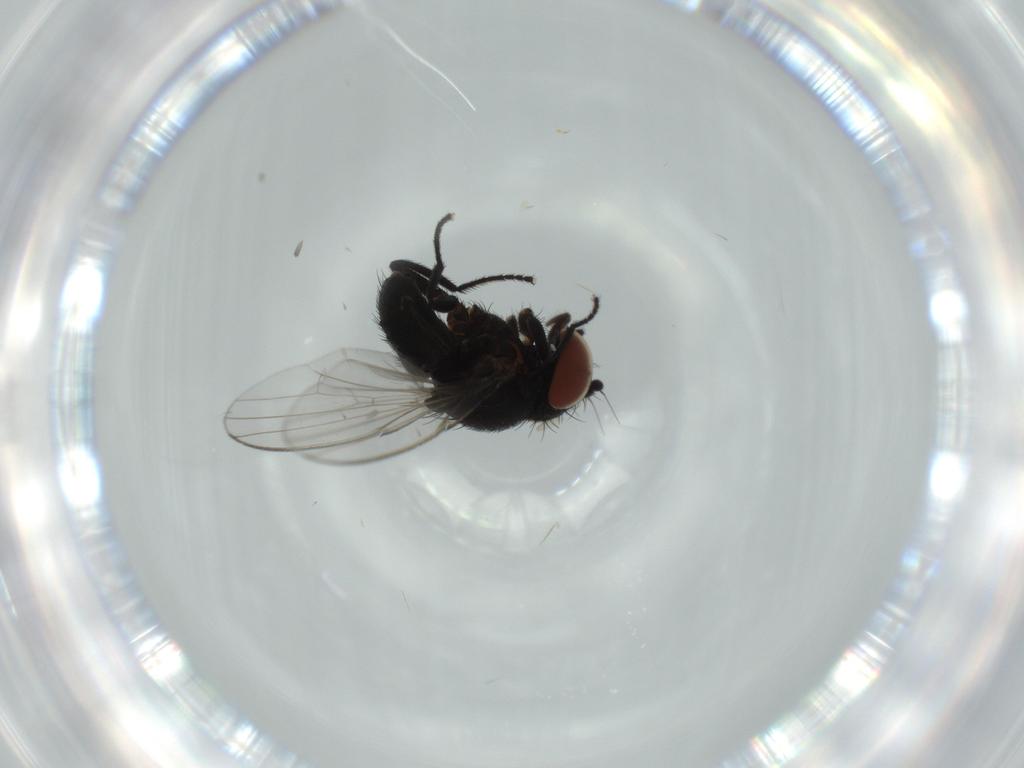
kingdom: Animalia
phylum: Arthropoda
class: Insecta
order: Diptera
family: Milichiidae
